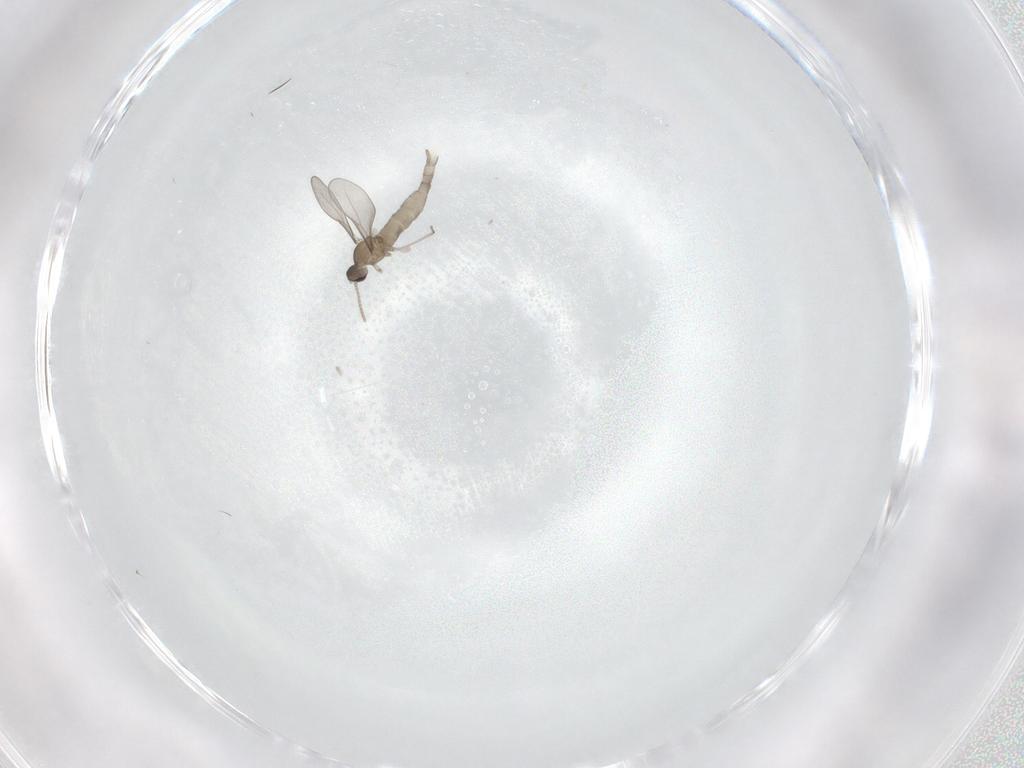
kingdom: Animalia
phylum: Arthropoda
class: Insecta
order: Diptera
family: Cecidomyiidae
